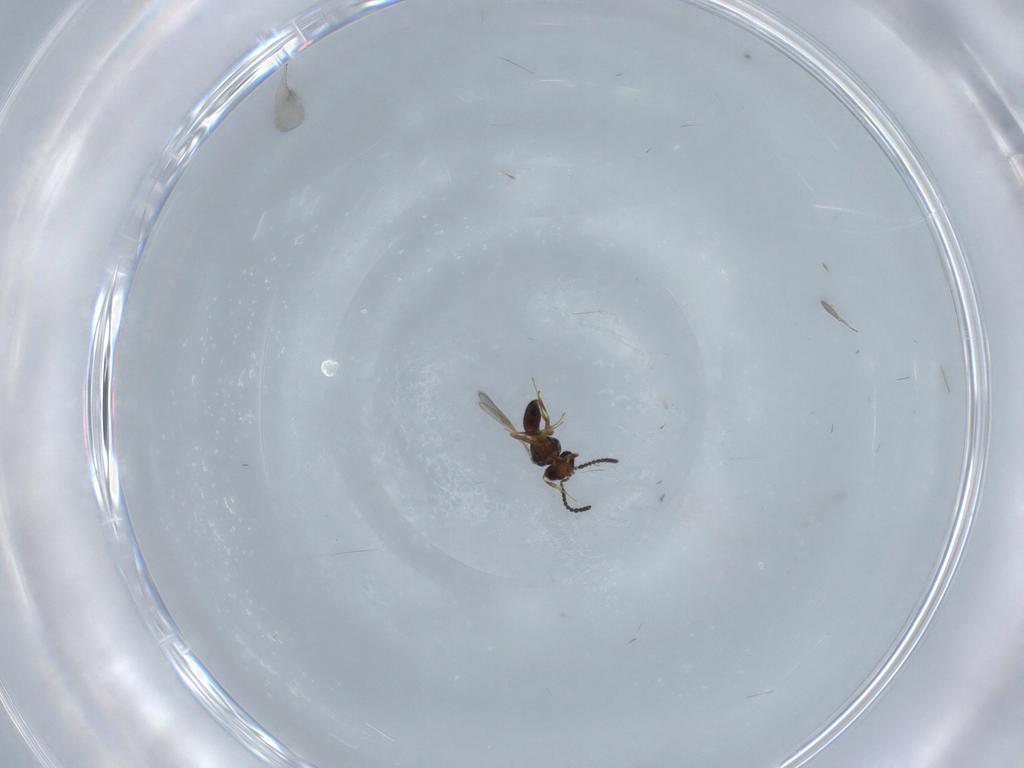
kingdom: Animalia
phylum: Arthropoda
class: Insecta
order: Hymenoptera
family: Scelionidae
